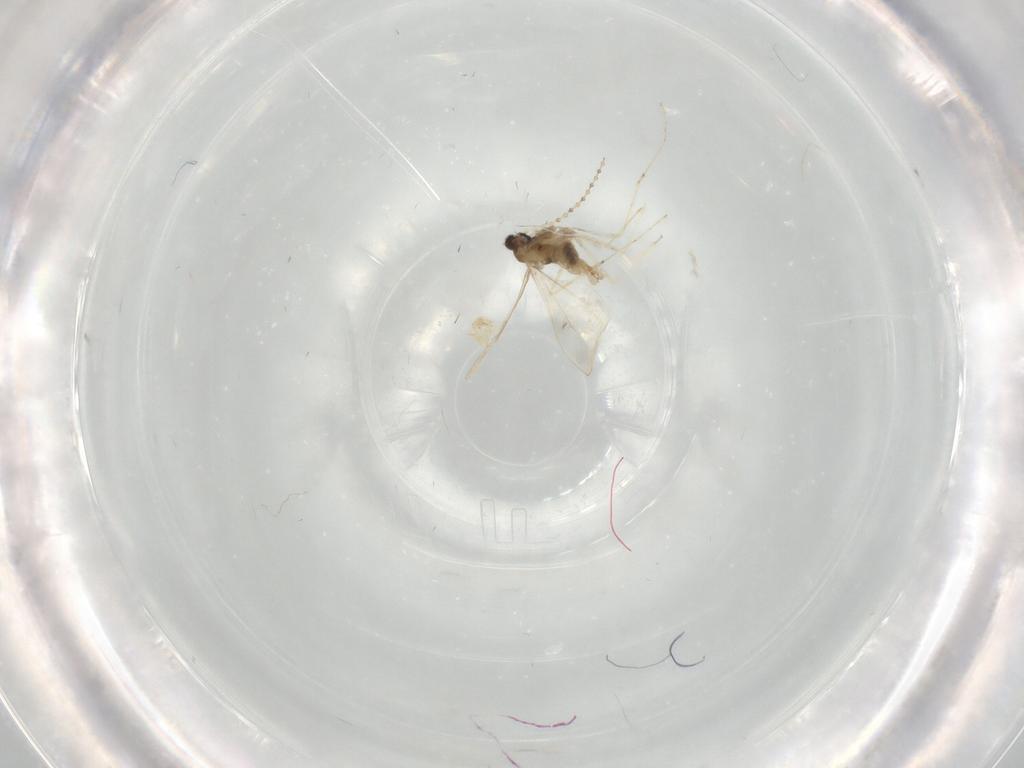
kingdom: Animalia
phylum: Arthropoda
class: Insecta
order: Diptera
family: Cecidomyiidae
